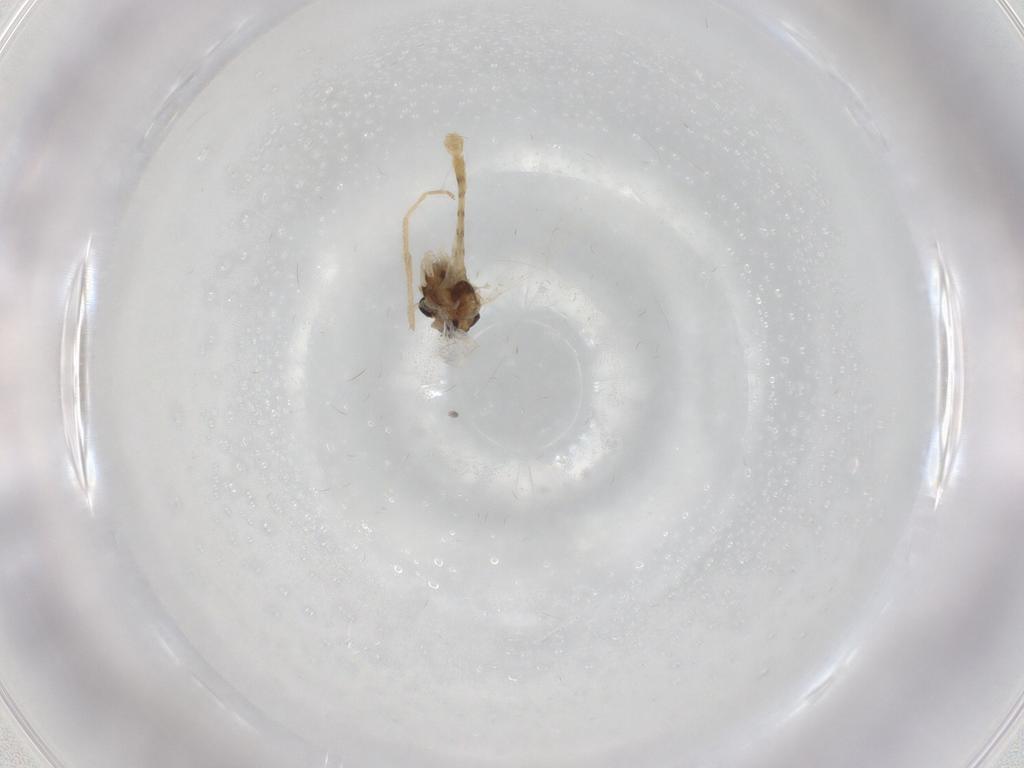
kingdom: Animalia
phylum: Arthropoda
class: Insecta
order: Diptera
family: Chironomidae
